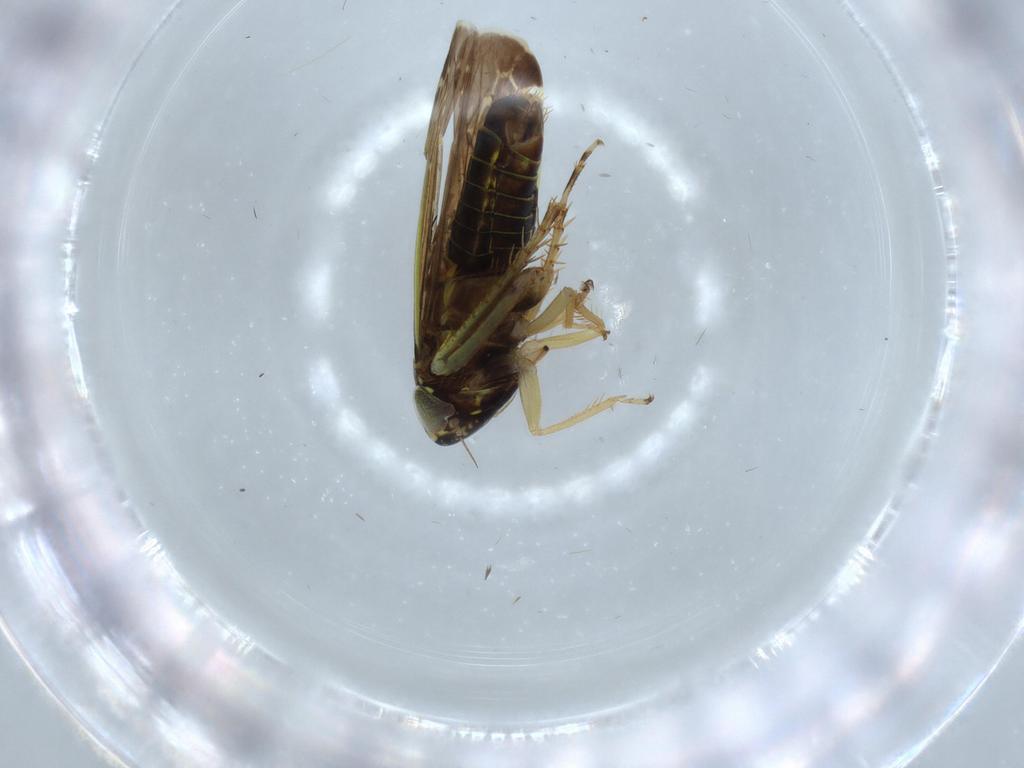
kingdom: Animalia
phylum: Arthropoda
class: Insecta
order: Hemiptera
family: Cicadellidae
